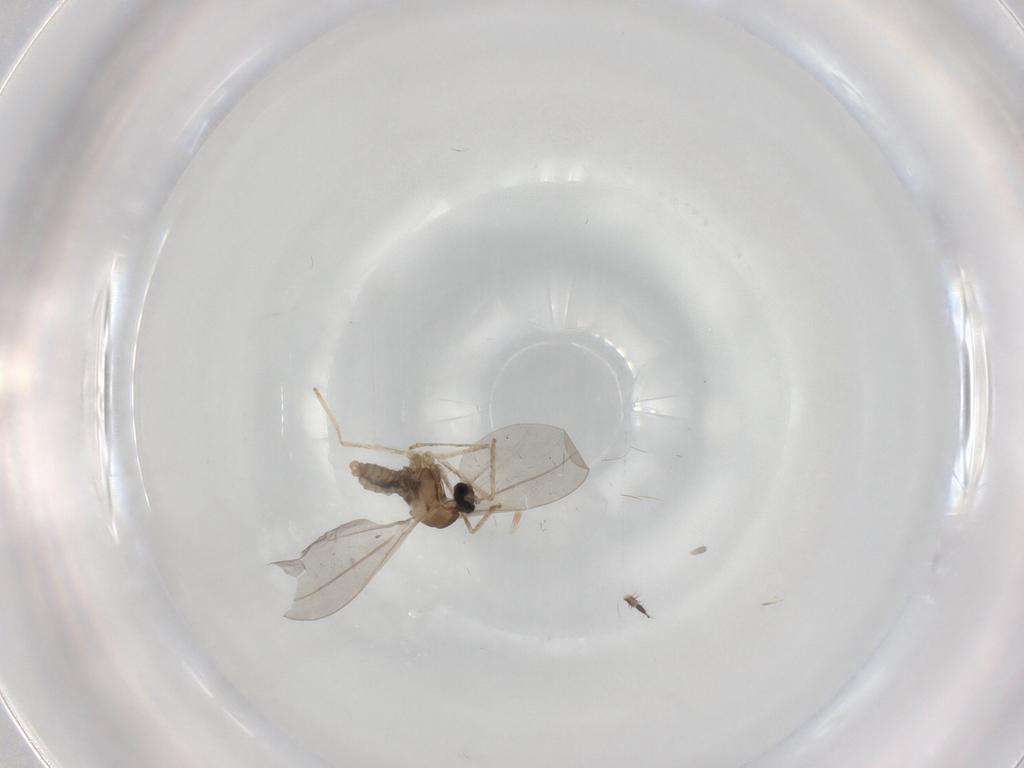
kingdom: Animalia
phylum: Arthropoda
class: Insecta
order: Diptera
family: Cecidomyiidae
